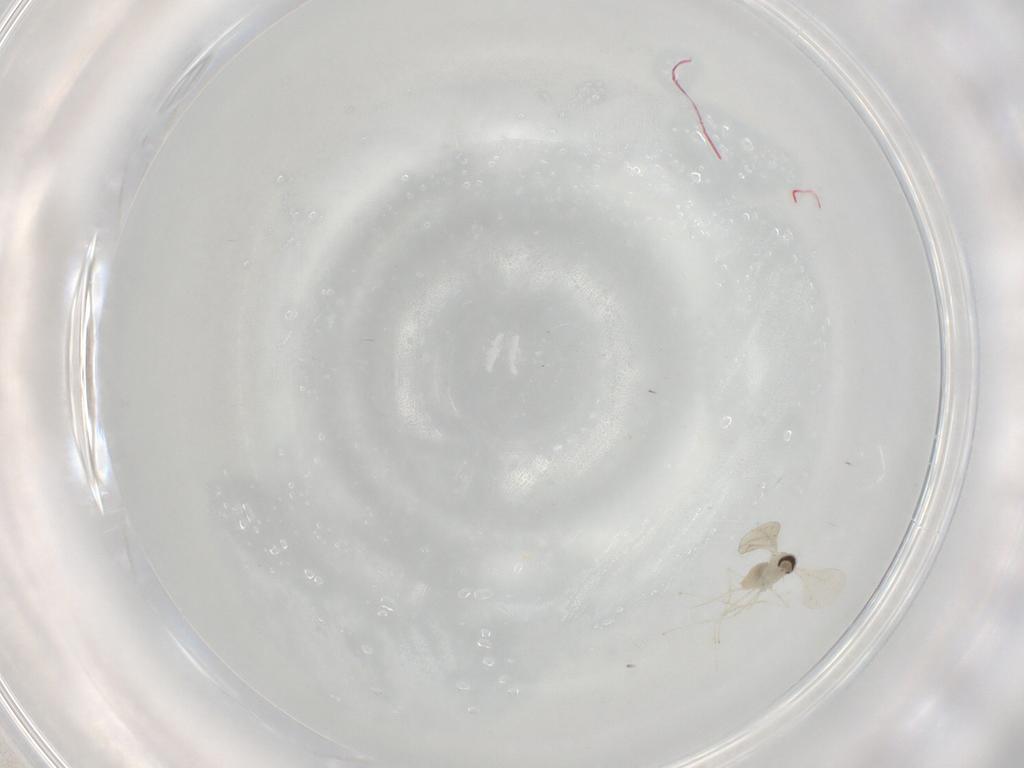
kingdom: Animalia
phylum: Arthropoda
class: Insecta
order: Diptera
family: Cecidomyiidae
